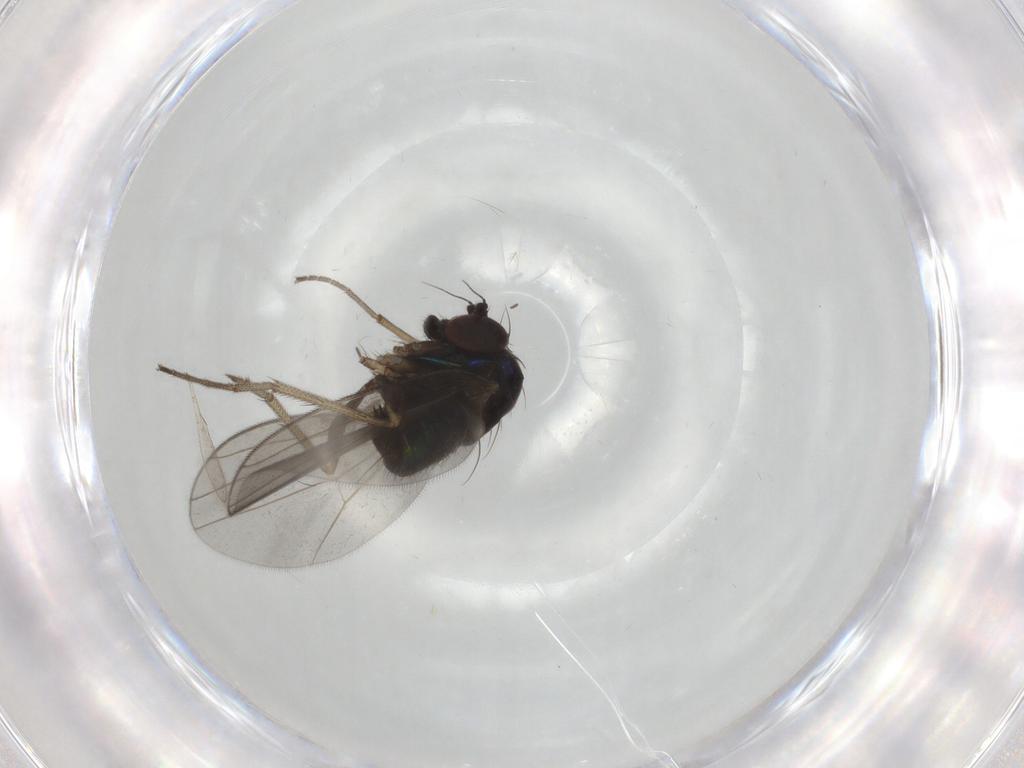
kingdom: Animalia
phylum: Arthropoda
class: Insecta
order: Diptera
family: Dolichopodidae
